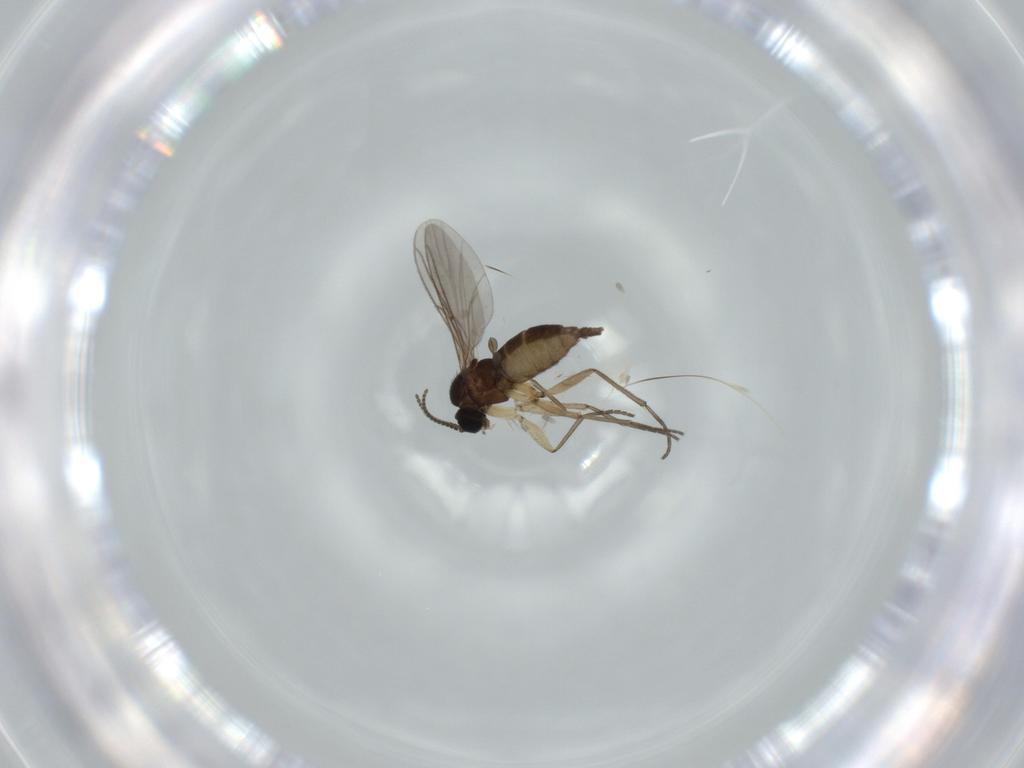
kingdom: Animalia
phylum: Arthropoda
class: Insecta
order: Diptera
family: Sciaridae
